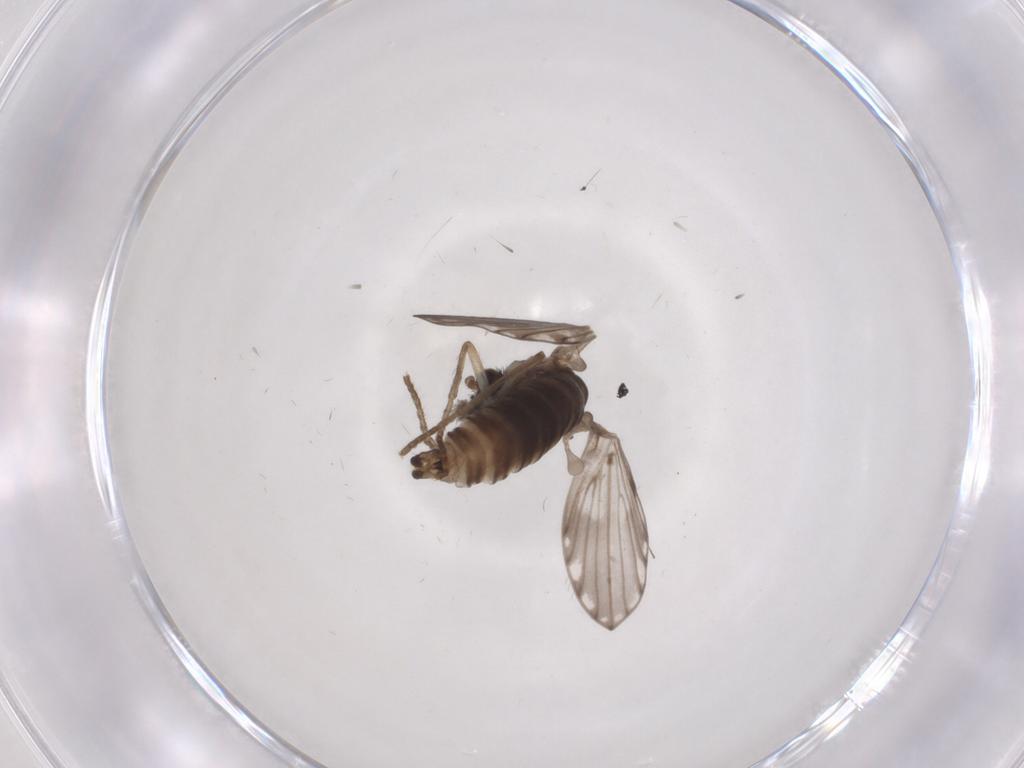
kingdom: Animalia
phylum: Arthropoda
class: Insecta
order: Diptera
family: Psychodidae
